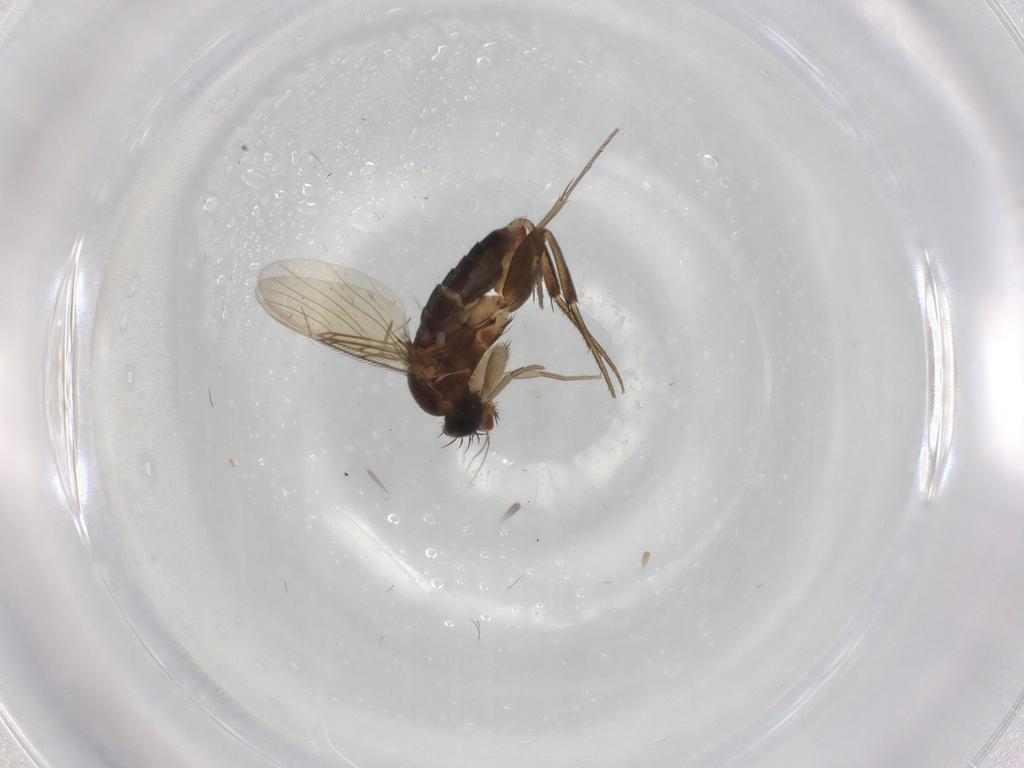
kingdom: Animalia
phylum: Arthropoda
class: Insecta
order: Diptera
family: Phoridae
